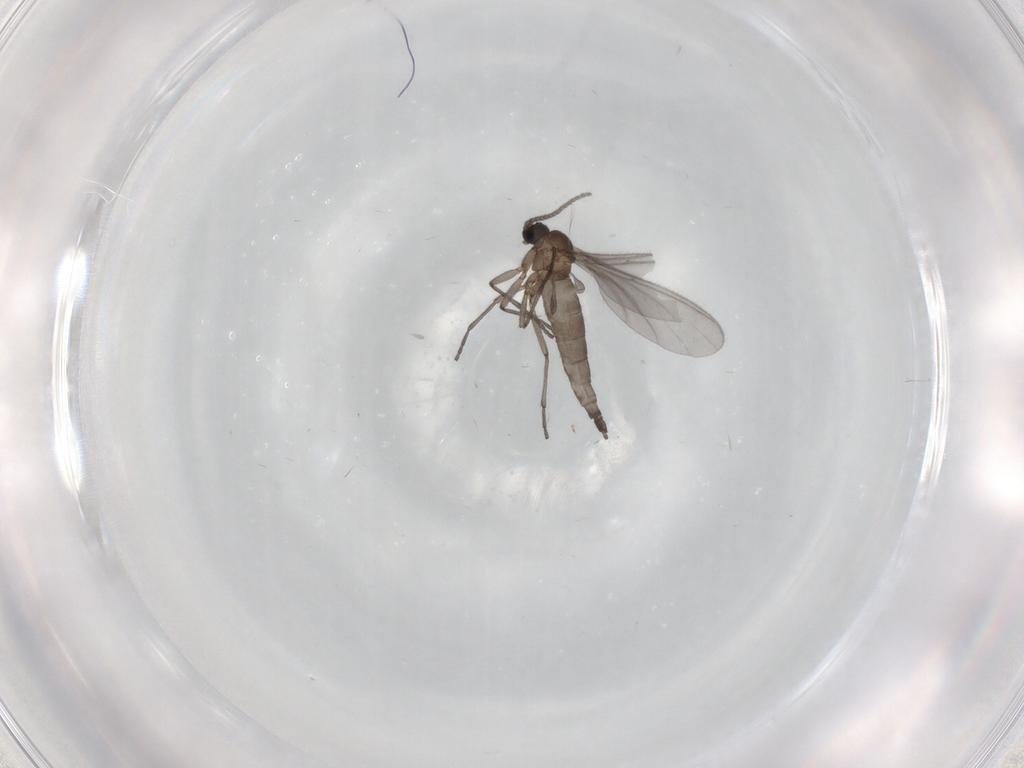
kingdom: Animalia
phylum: Arthropoda
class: Insecta
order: Diptera
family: Sciaridae
